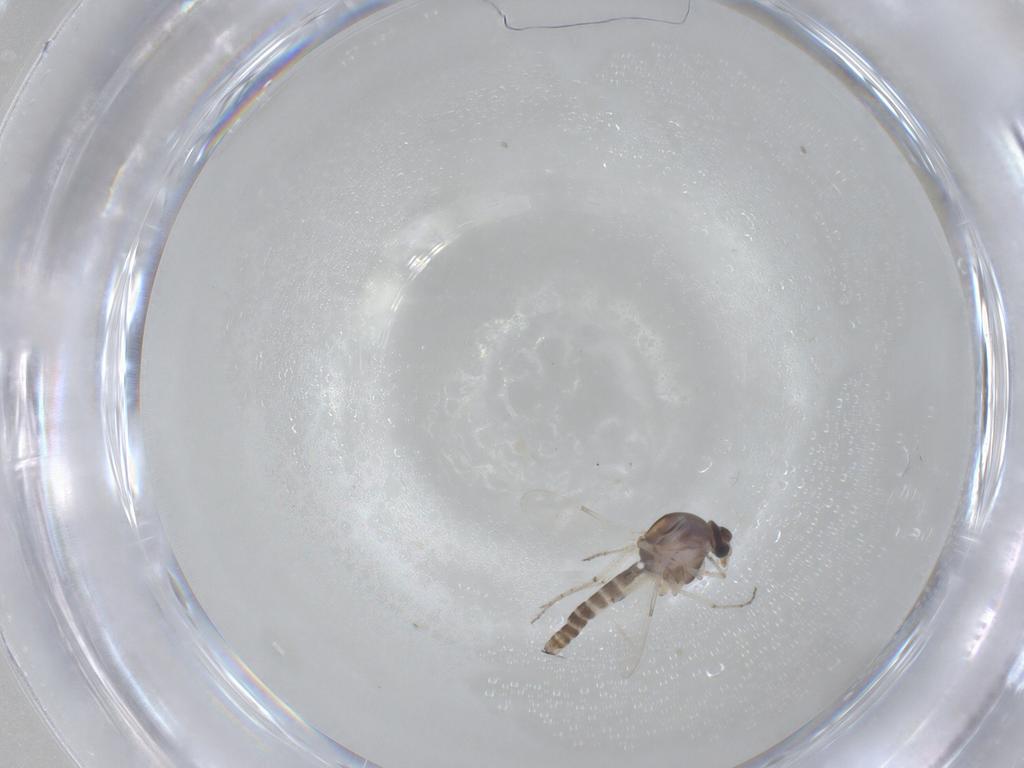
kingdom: Animalia
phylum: Arthropoda
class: Insecta
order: Diptera
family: Ceratopogonidae
